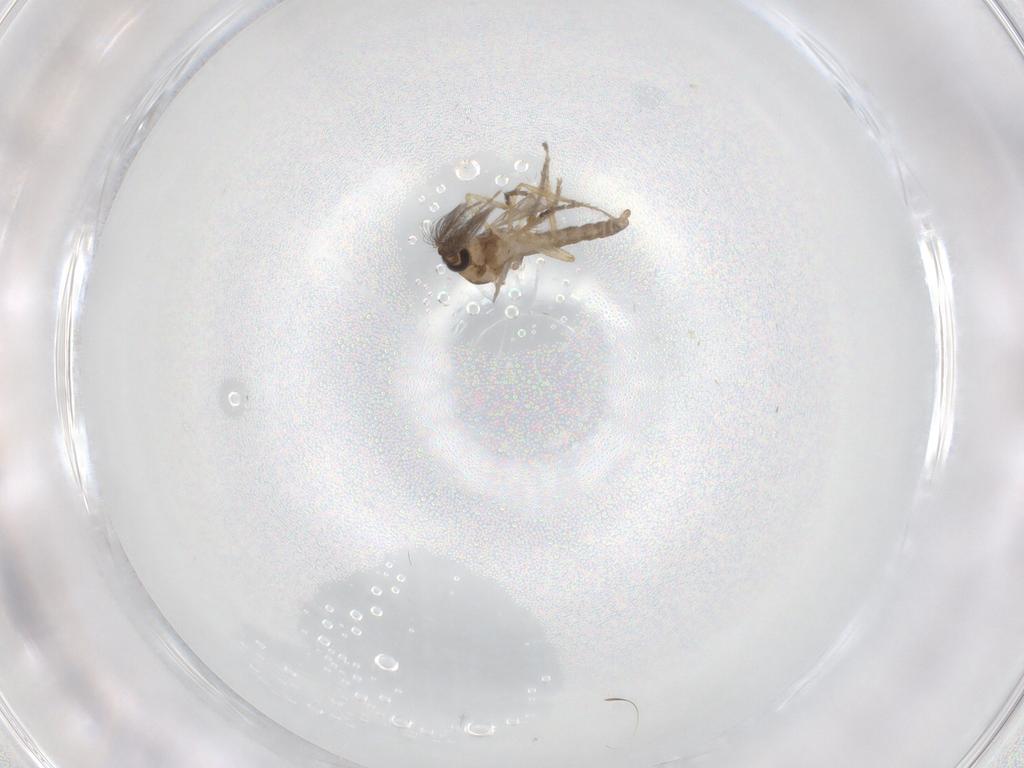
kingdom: Animalia
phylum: Arthropoda
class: Insecta
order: Diptera
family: Ceratopogonidae
